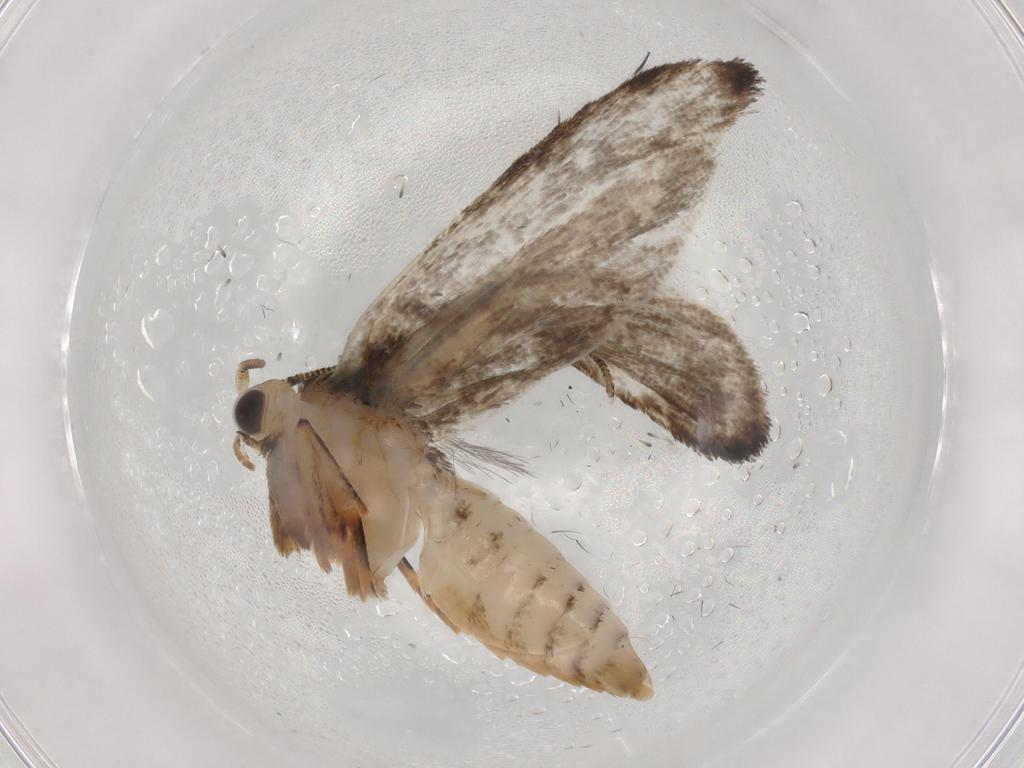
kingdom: Animalia
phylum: Arthropoda
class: Insecta
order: Lepidoptera
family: Tineidae
